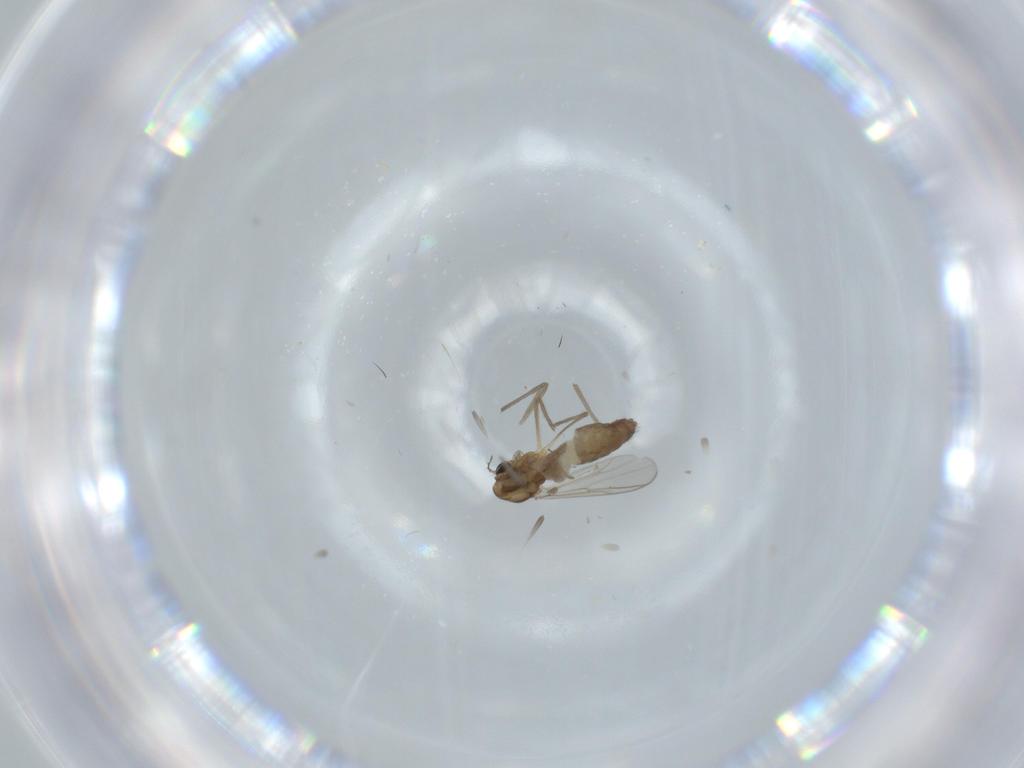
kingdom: Animalia
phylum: Arthropoda
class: Insecta
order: Diptera
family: Chironomidae
